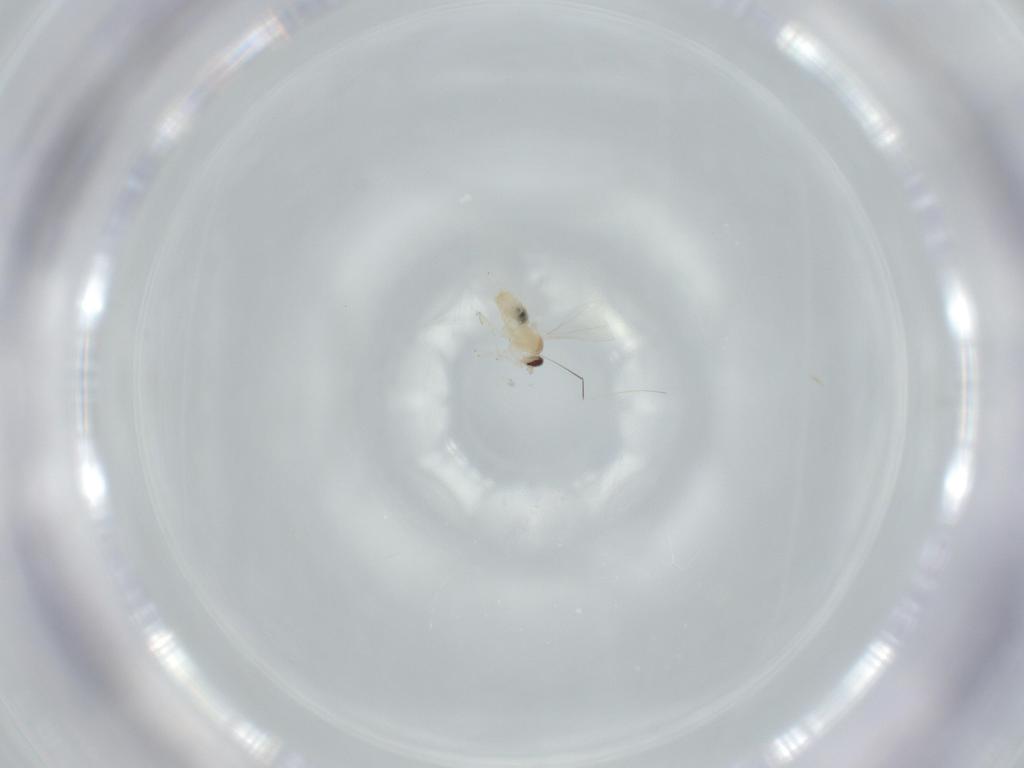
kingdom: Animalia
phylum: Arthropoda
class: Insecta
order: Diptera
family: Cecidomyiidae
